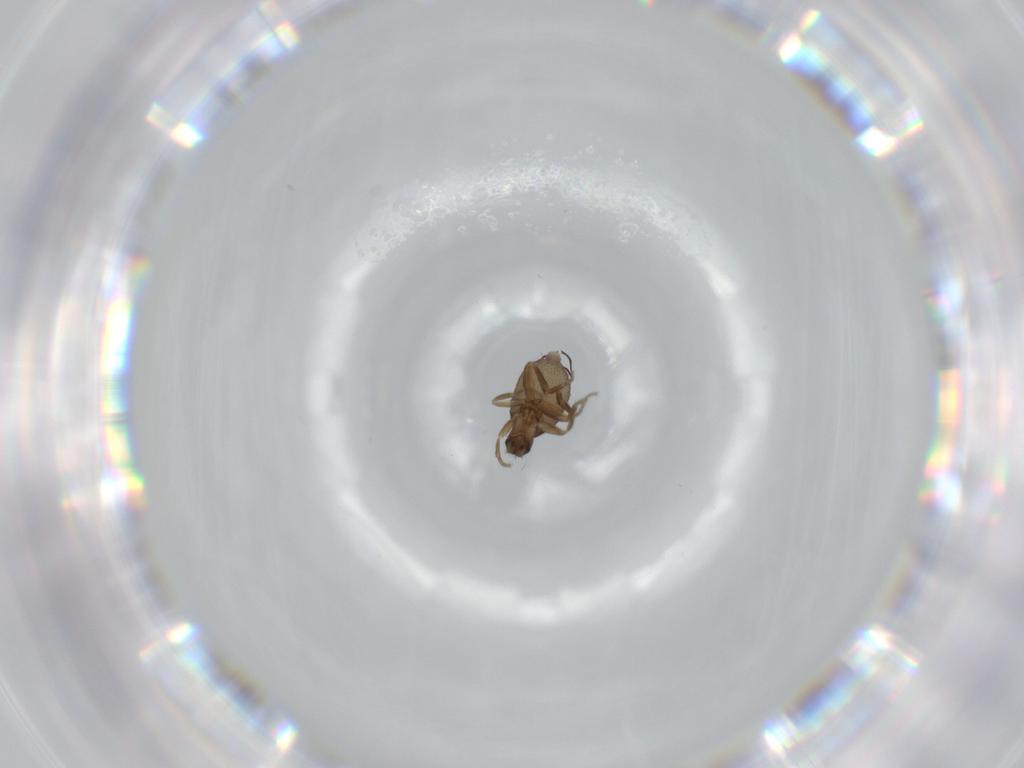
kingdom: Animalia
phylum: Arthropoda
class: Insecta
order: Diptera
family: Phoridae
